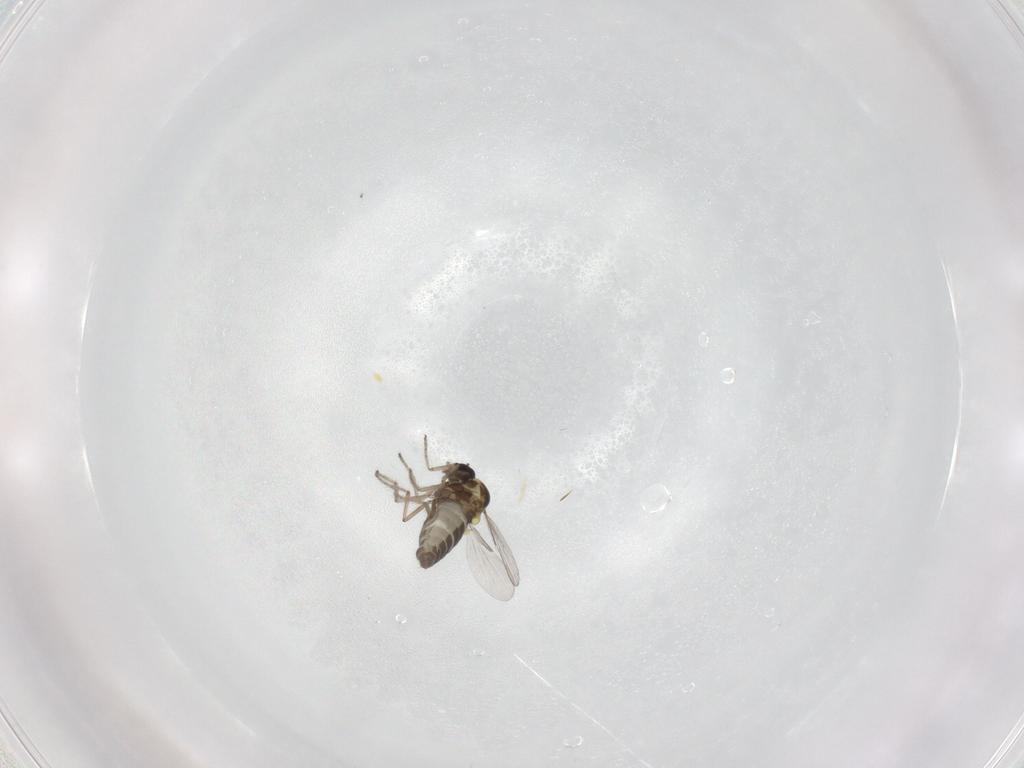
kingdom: Animalia
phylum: Arthropoda
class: Insecta
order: Diptera
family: Ceratopogonidae
